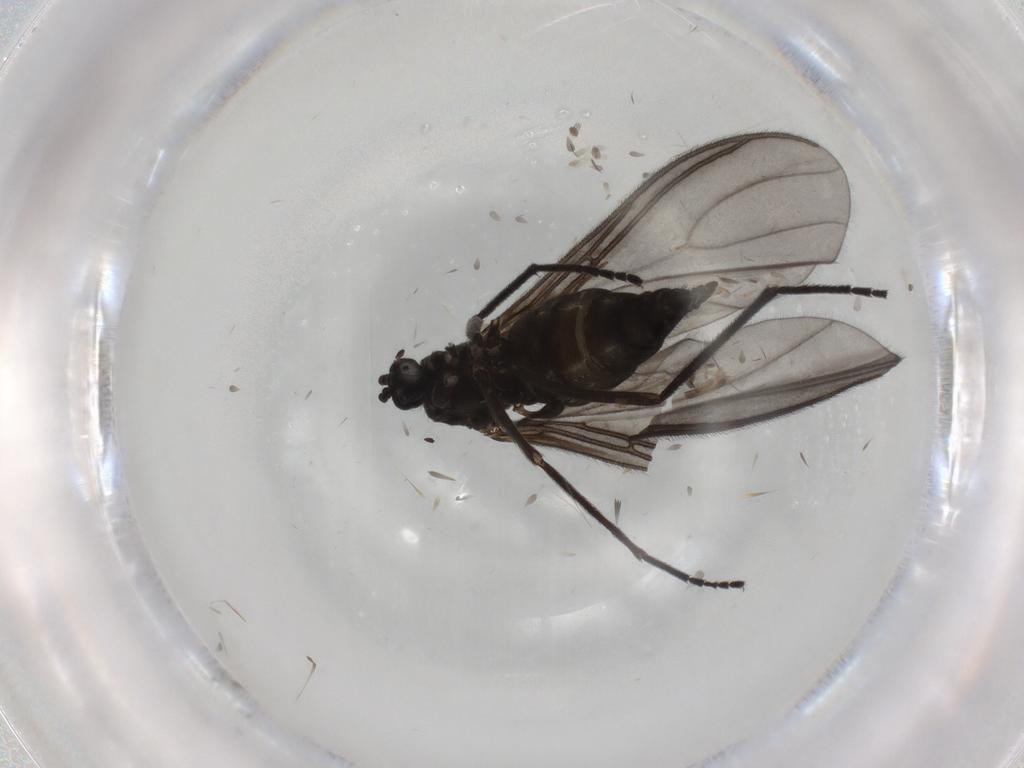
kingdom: Animalia
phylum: Arthropoda
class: Insecta
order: Diptera
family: Sciaridae
